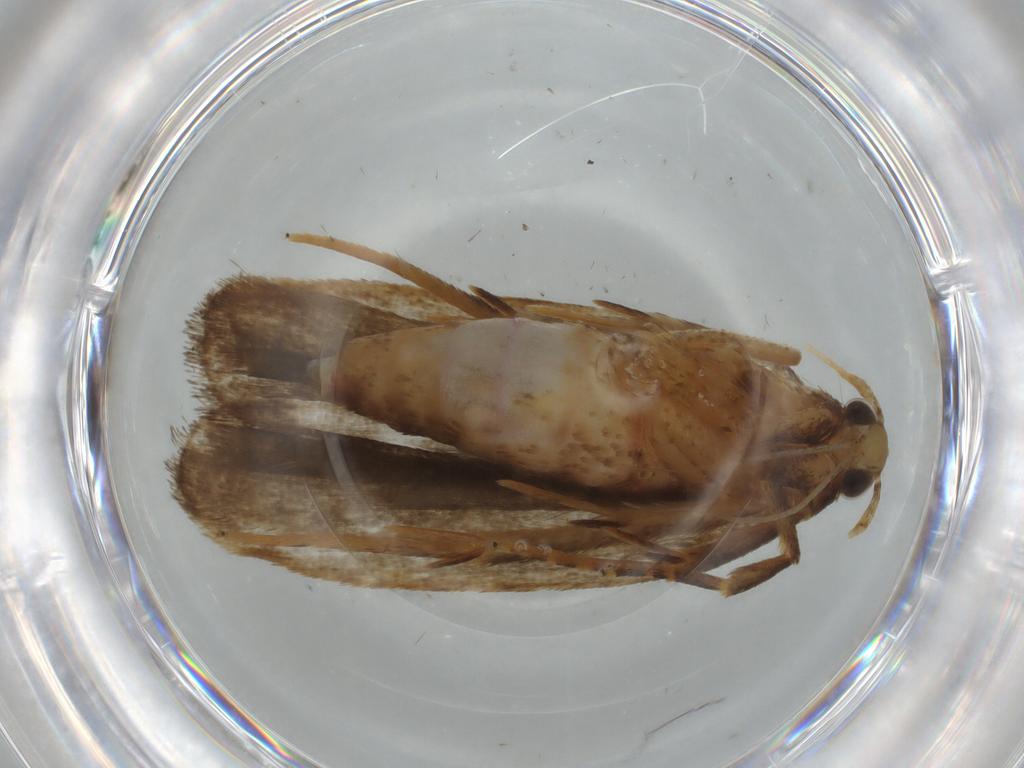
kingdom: Animalia
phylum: Arthropoda
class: Insecta
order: Lepidoptera
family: Autostichidae
